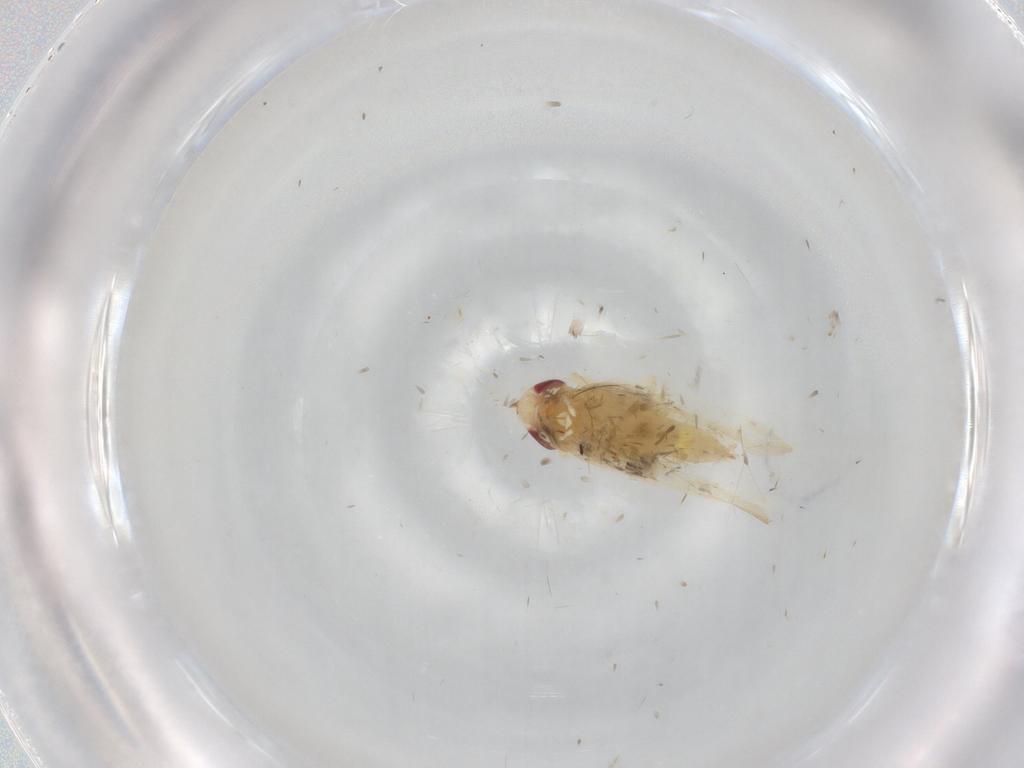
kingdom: Animalia
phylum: Arthropoda
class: Insecta
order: Hemiptera
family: Cicadellidae
